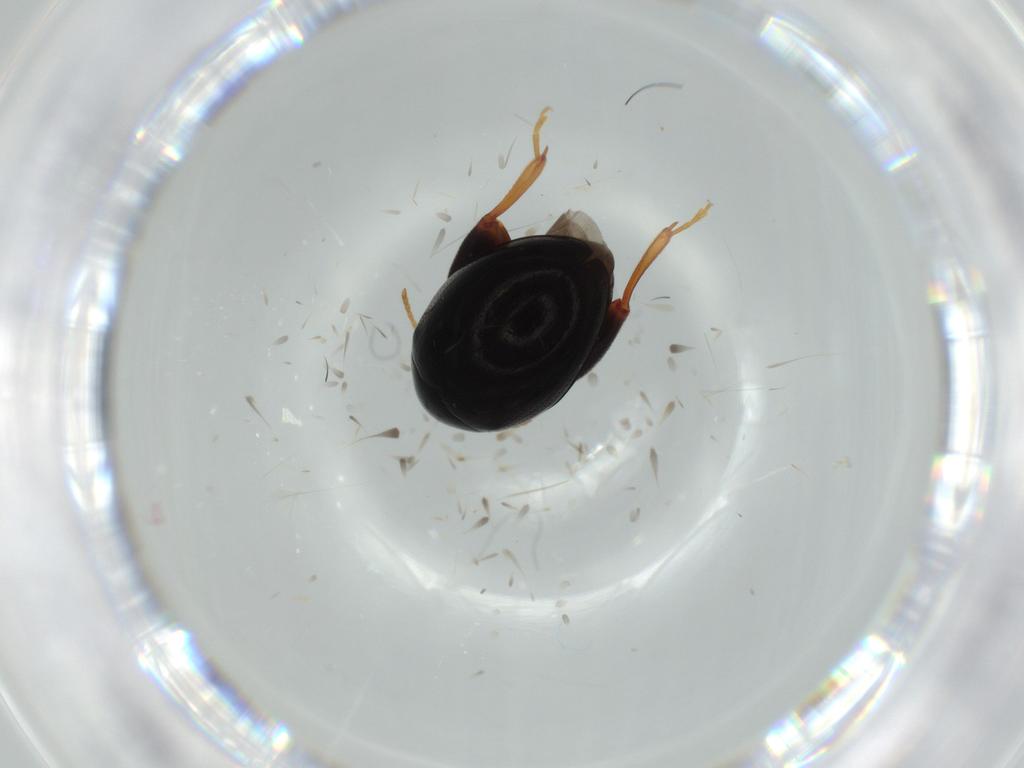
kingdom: Animalia
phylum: Arthropoda
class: Insecta
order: Coleoptera
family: Chrysomelidae
